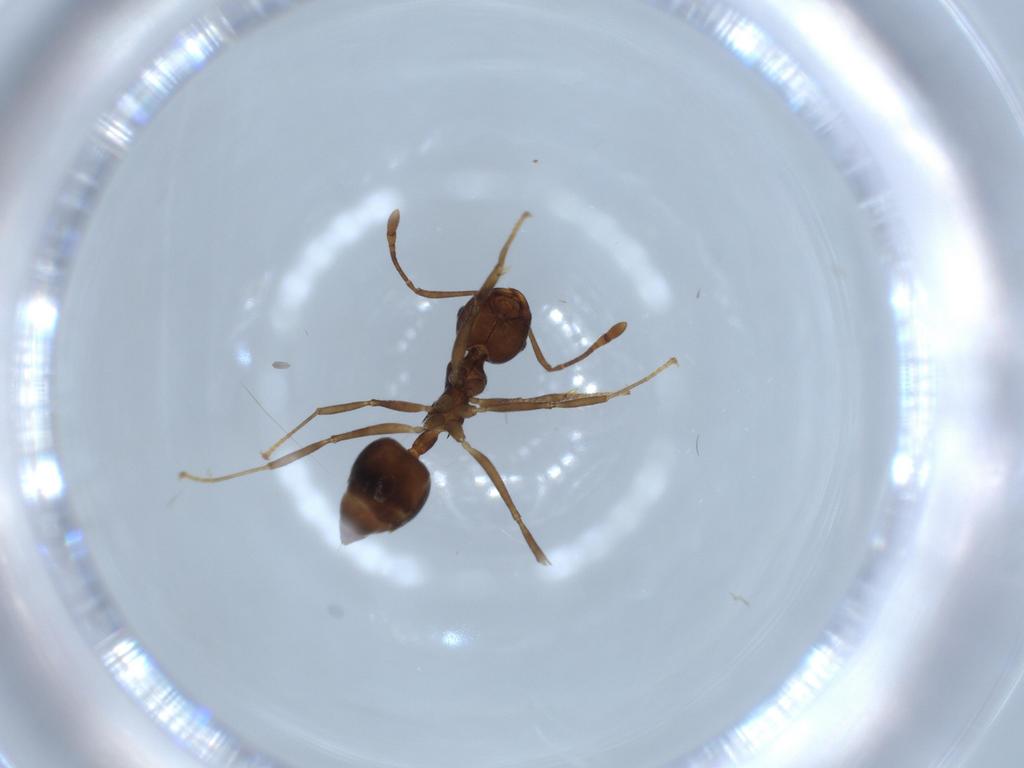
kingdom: Animalia
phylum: Arthropoda
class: Insecta
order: Hymenoptera
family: Formicidae
